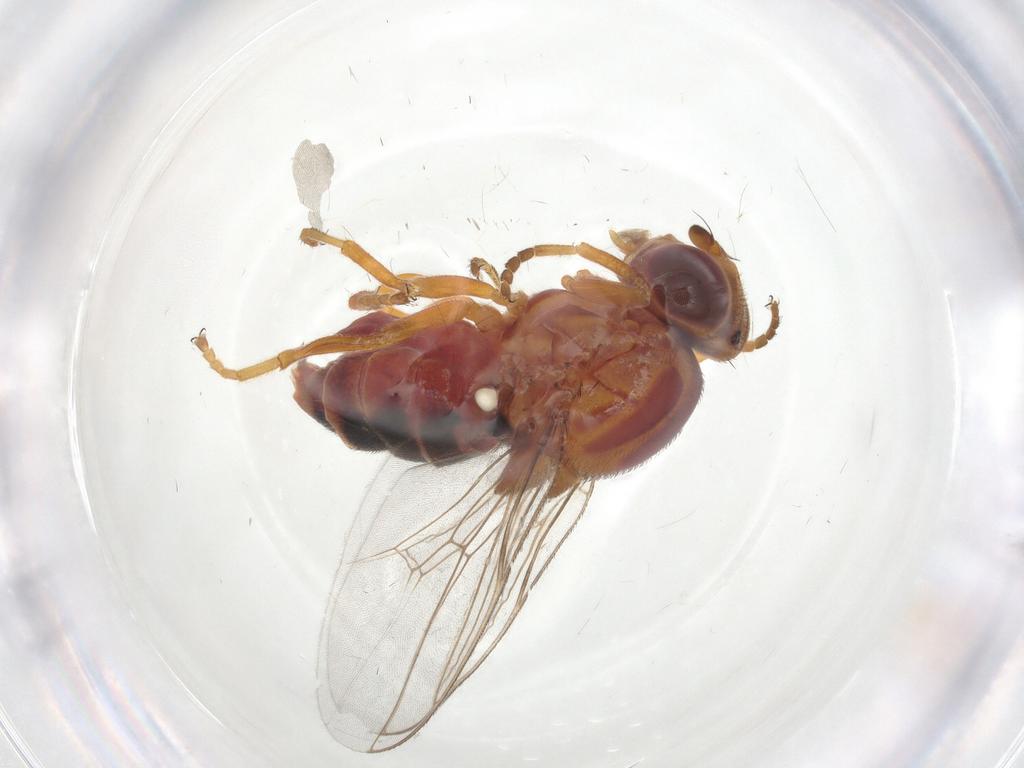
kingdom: Animalia
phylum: Arthropoda
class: Insecta
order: Diptera
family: Chloropidae
